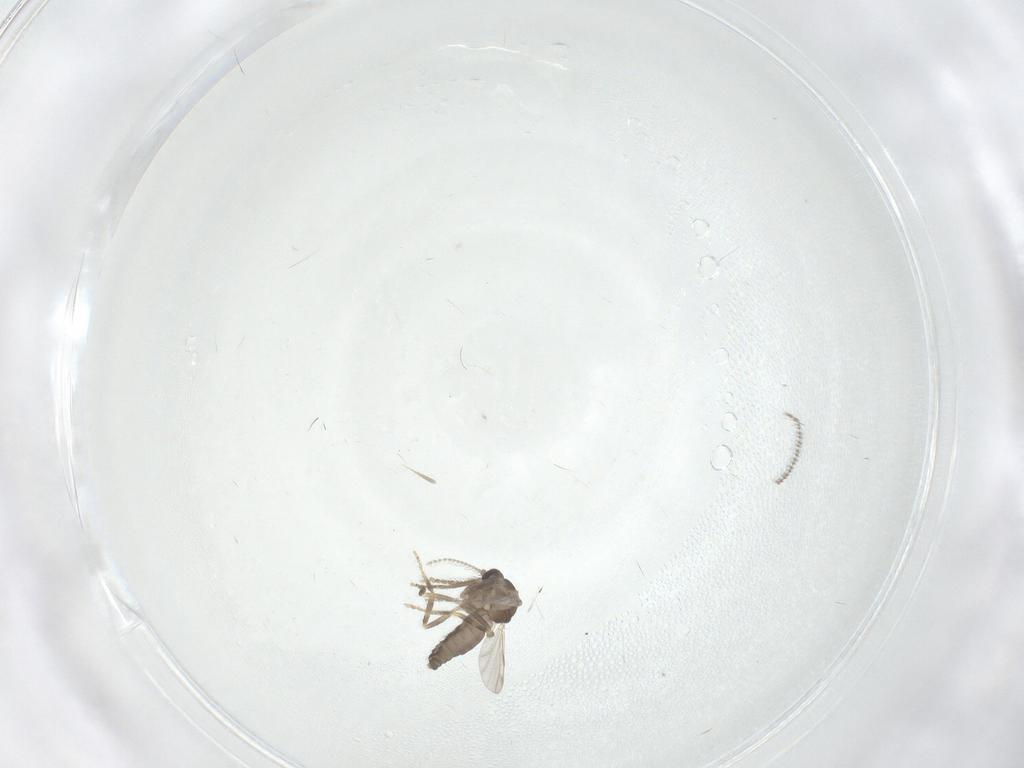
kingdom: Animalia
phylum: Arthropoda
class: Insecta
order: Diptera
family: Ceratopogonidae
